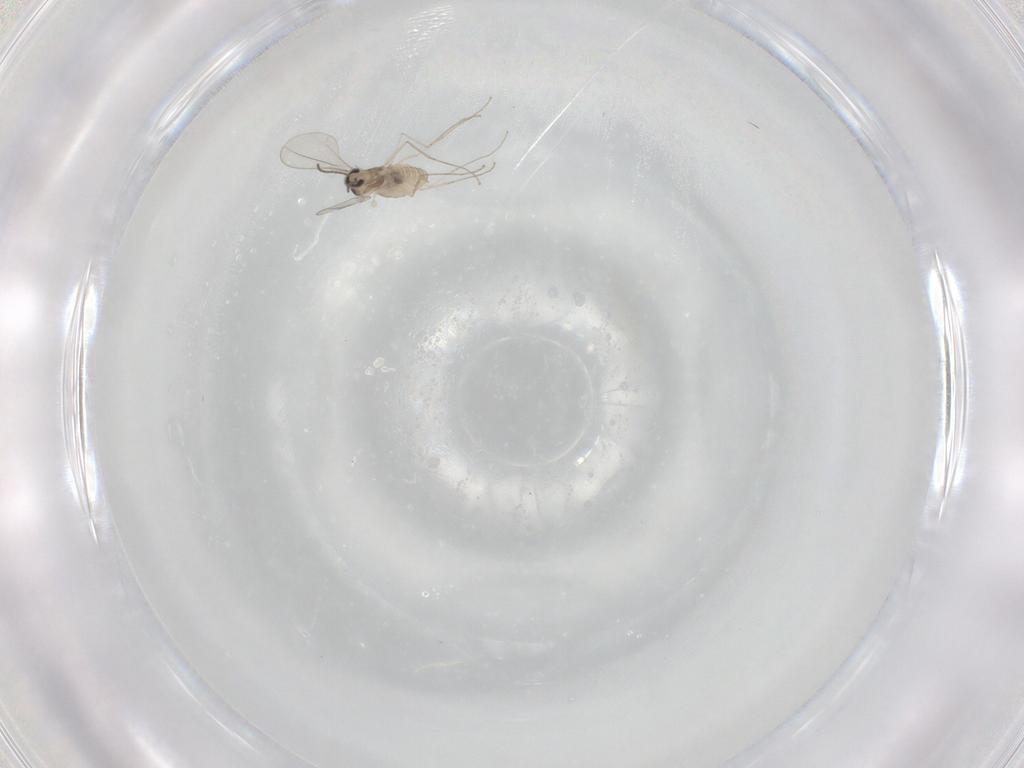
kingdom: Animalia
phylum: Arthropoda
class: Insecta
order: Diptera
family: Cecidomyiidae
